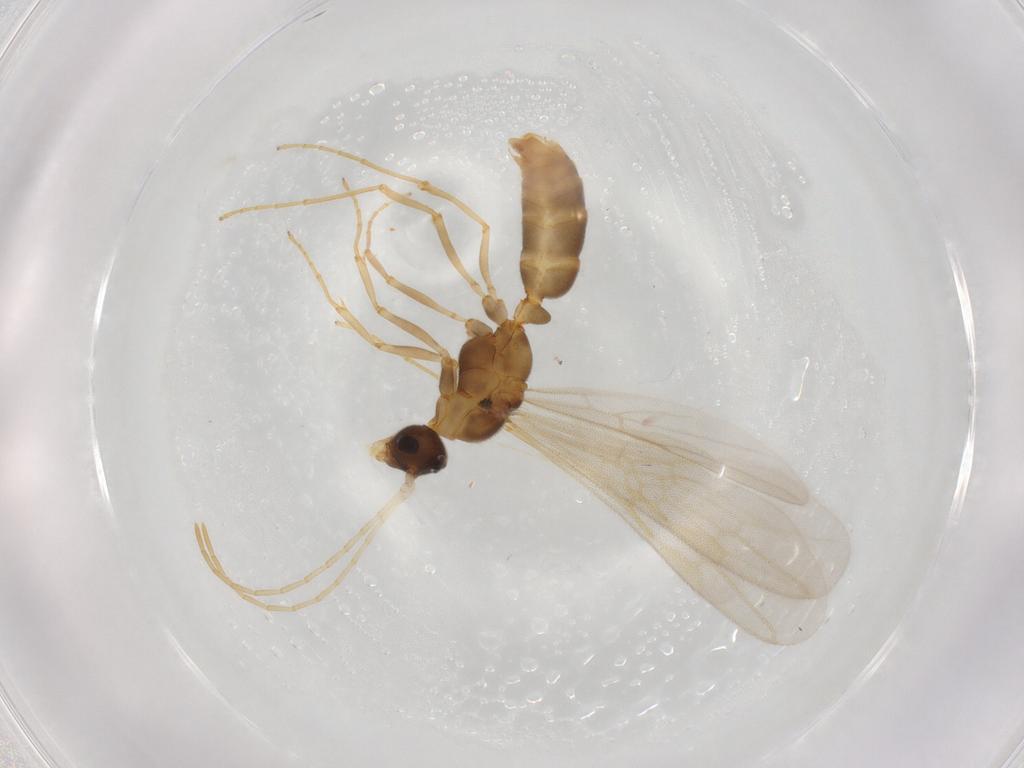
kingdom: Animalia
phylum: Arthropoda
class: Insecta
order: Hymenoptera
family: Formicidae
